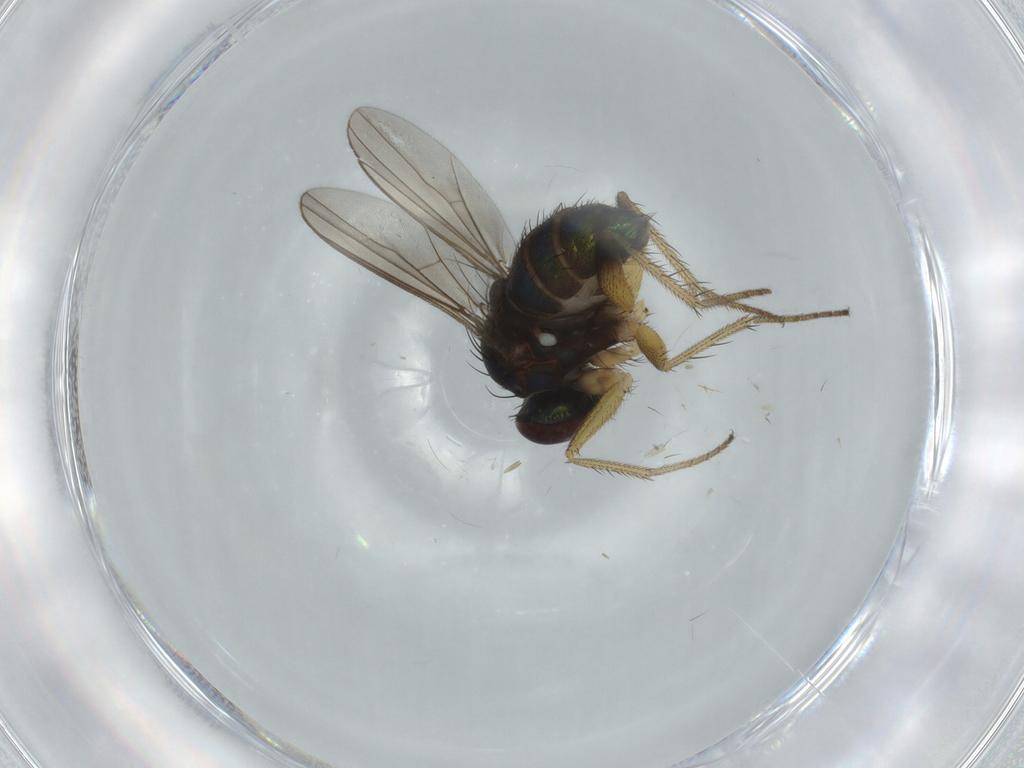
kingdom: Animalia
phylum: Arthropoda
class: Insecta
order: Diptera
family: Dolichopodidae
